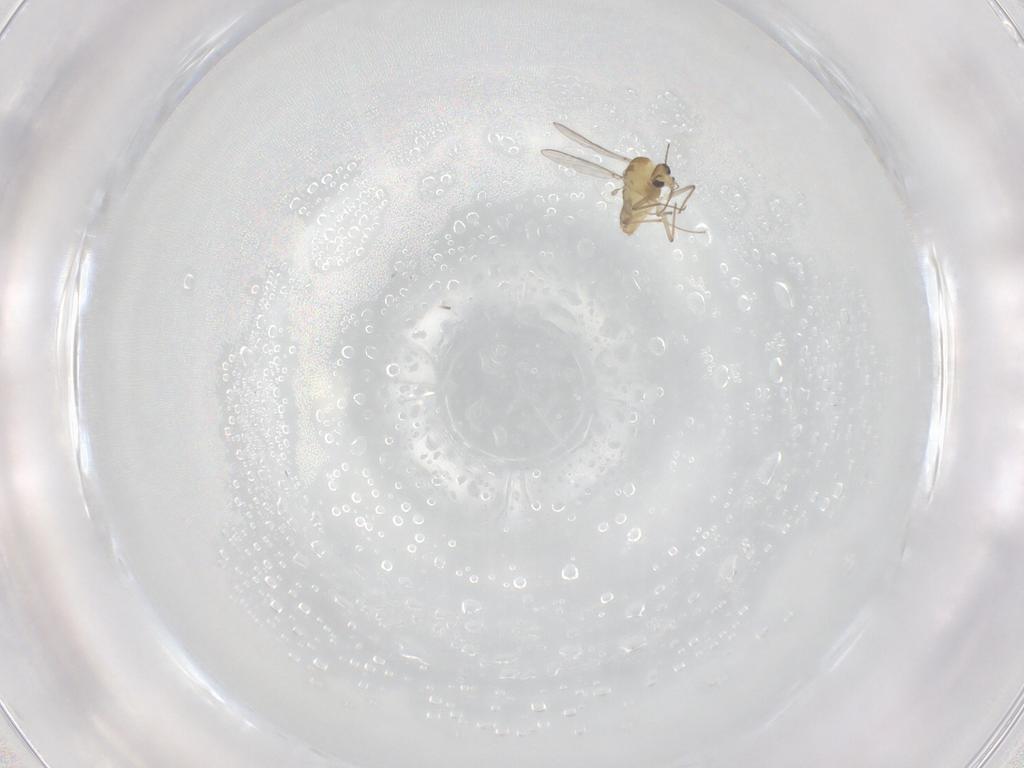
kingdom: Animalia
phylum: Arthropoda
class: Insecta
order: Diptera
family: Chironomidae
